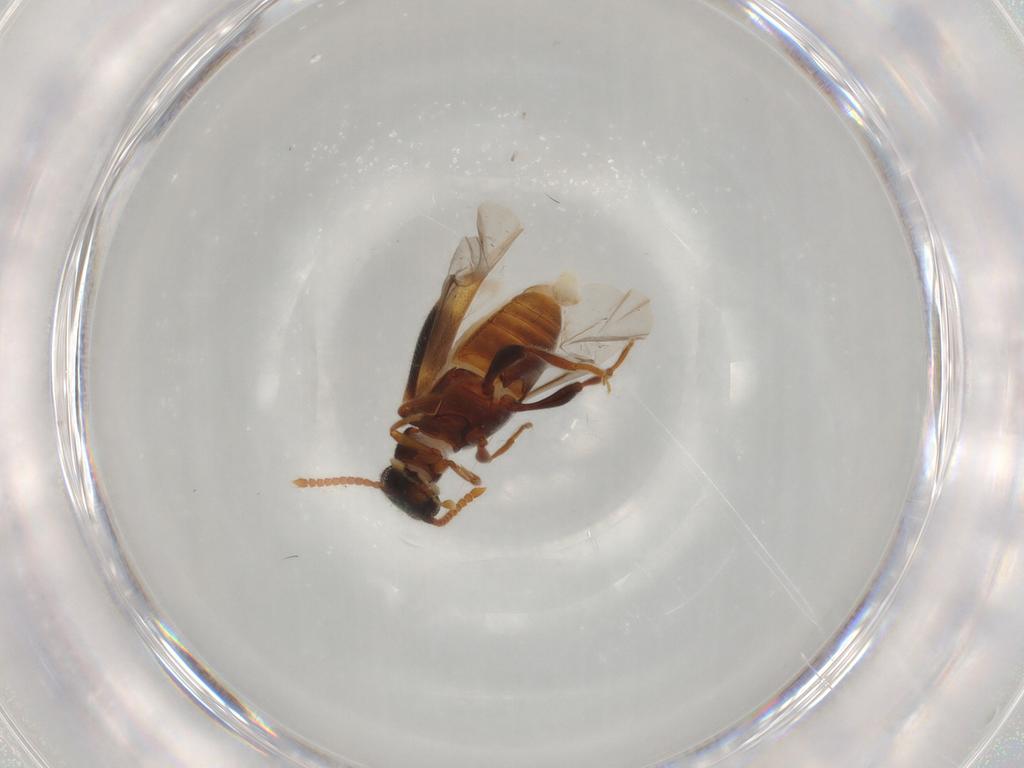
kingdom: Animalia
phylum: Arthropoda
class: Insecta
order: Coleoptera
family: Aderidae
